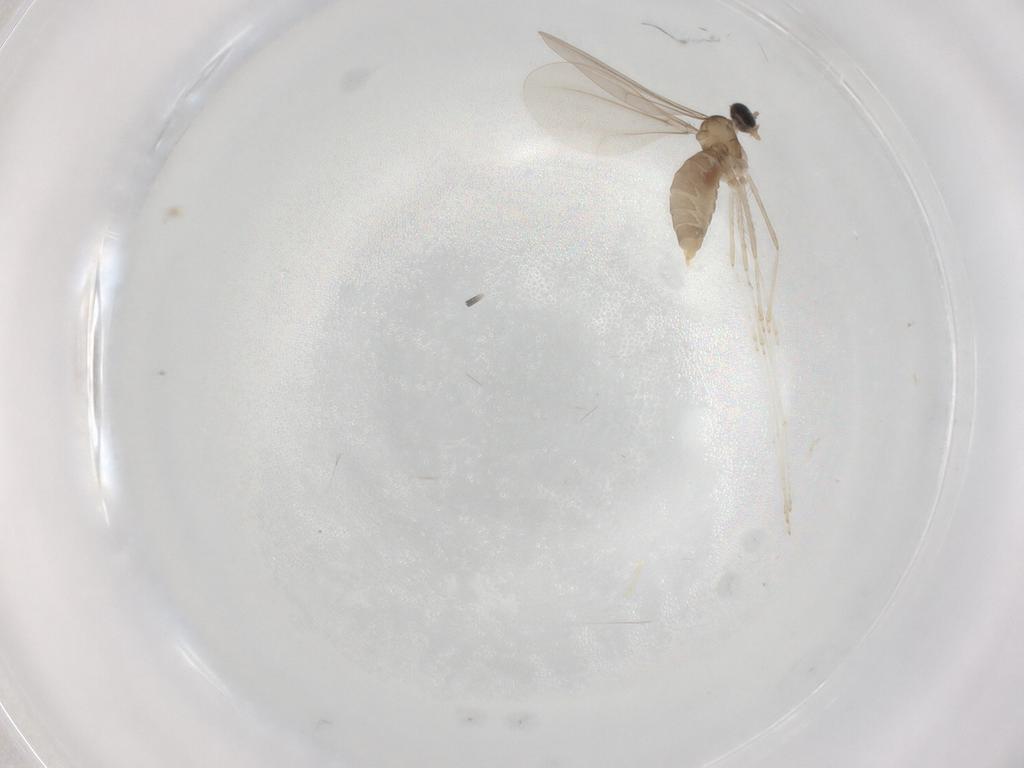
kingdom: Animalia
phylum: Arthropoda
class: Insecta
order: Diptera
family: Cecidomyiidae
